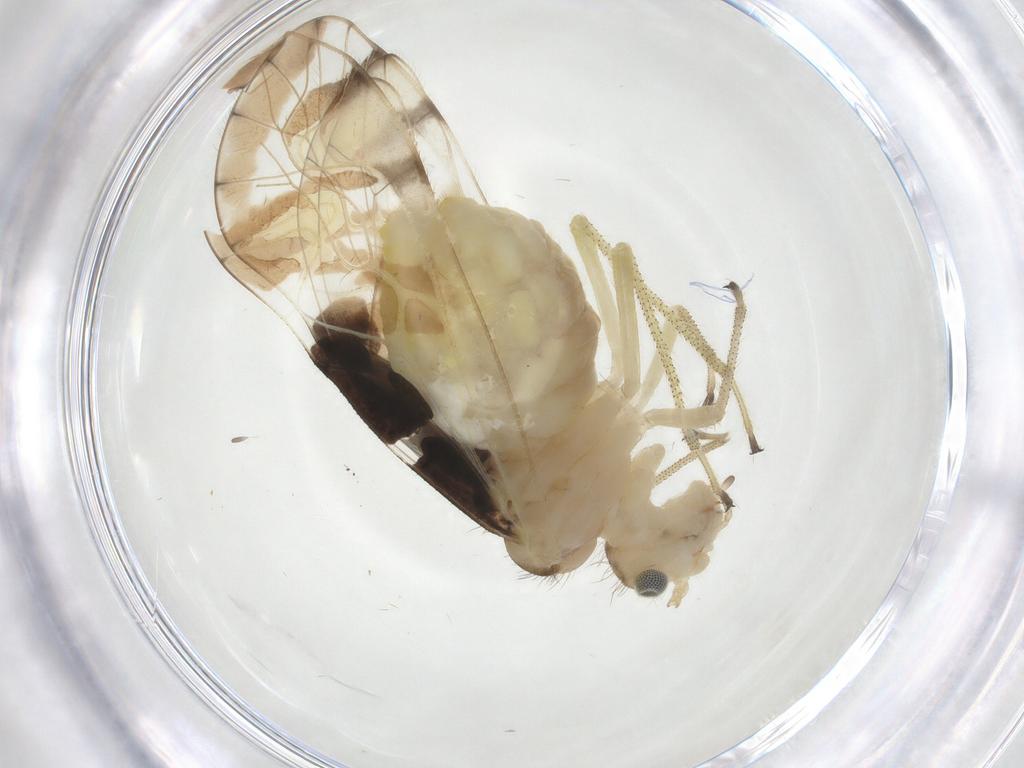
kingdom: Animalia
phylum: Arthropoda
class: Insecta
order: Psocodea
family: Amphipsocidae
